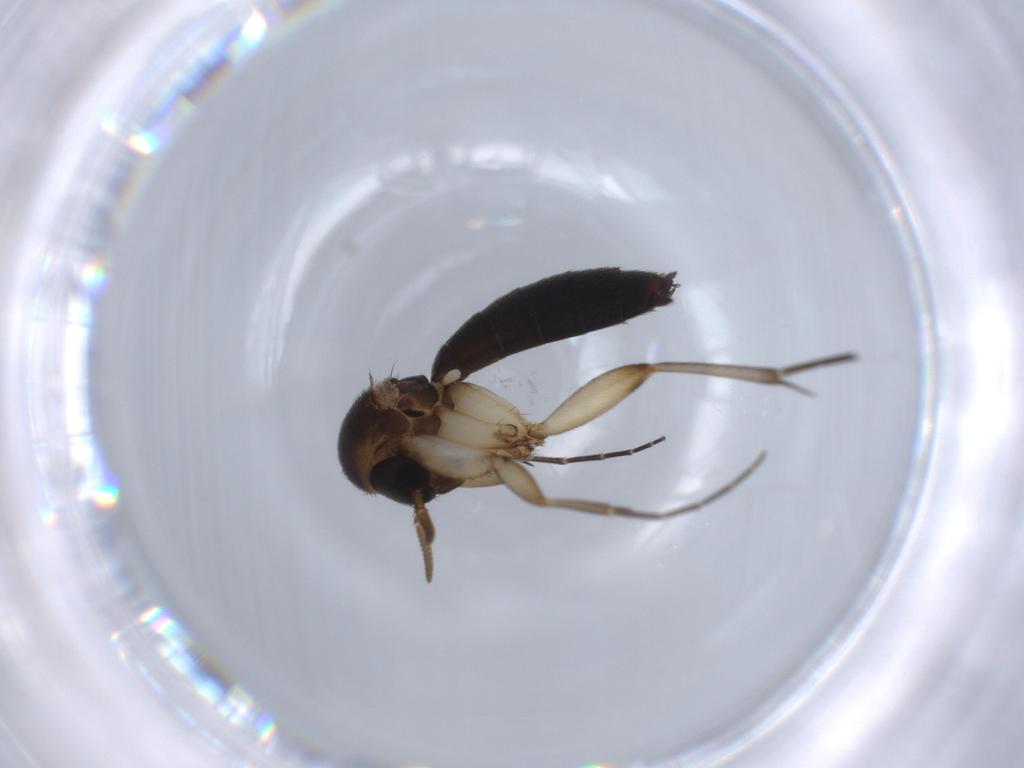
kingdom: Animalia
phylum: Arthropoda
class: Insecta
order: Diptera
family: Mycetophilidae
